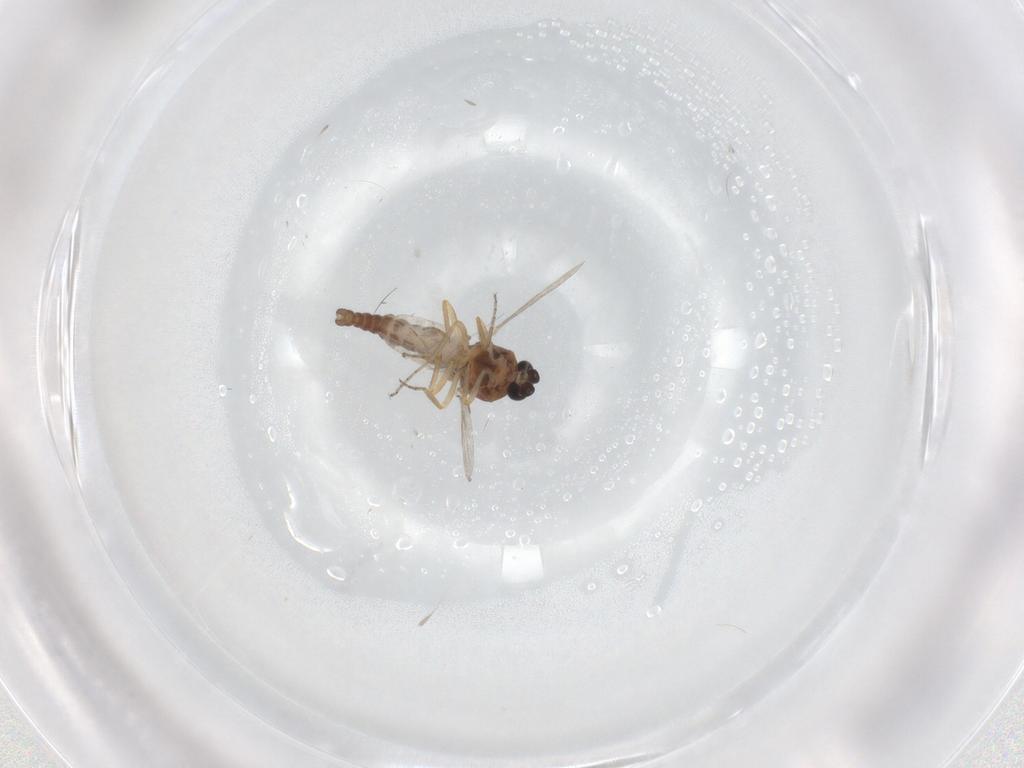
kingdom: Animalia
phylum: Arthropoda
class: Insecta
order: Diptera
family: Ceratopogonidae
